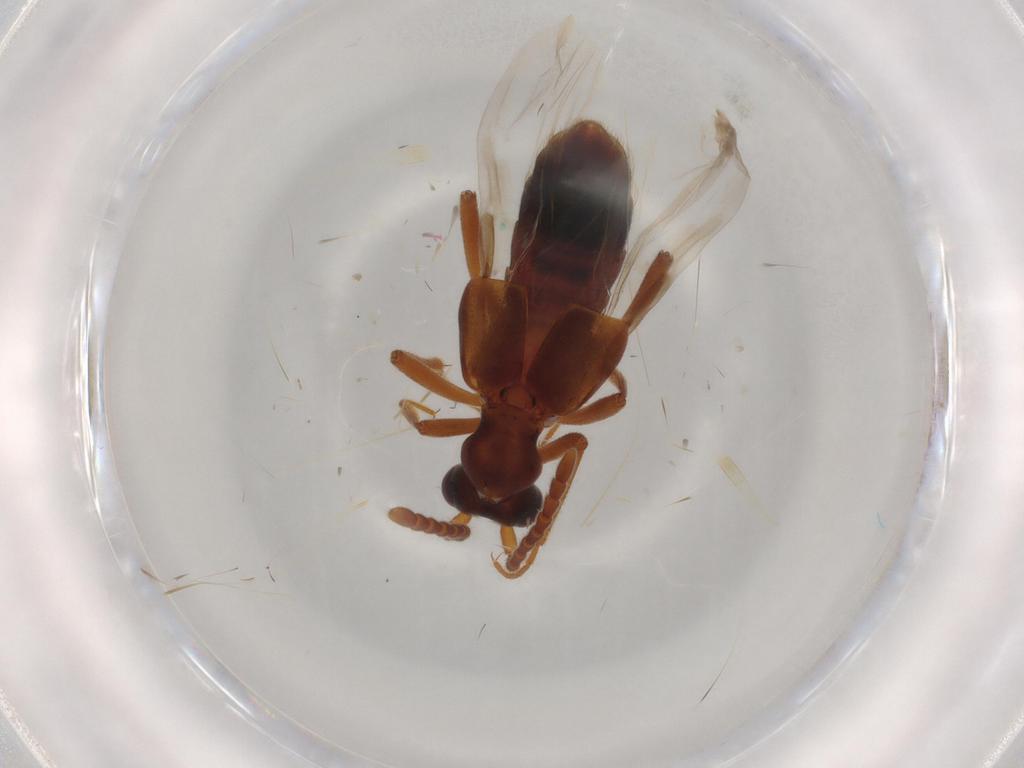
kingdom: Animalia
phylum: Arthropoda
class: Insecta
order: Coleoptera
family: Staphylinidae
